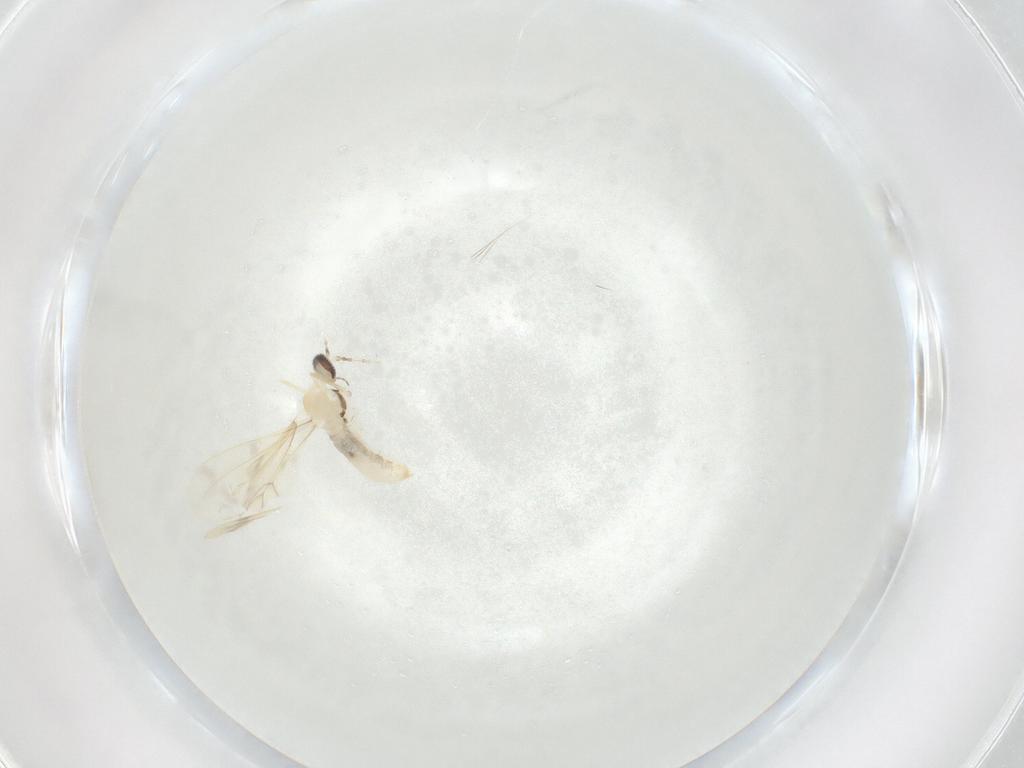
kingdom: Animalia
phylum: Arthropoda
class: Insecta
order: Diptera
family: Cecidomyiidae
